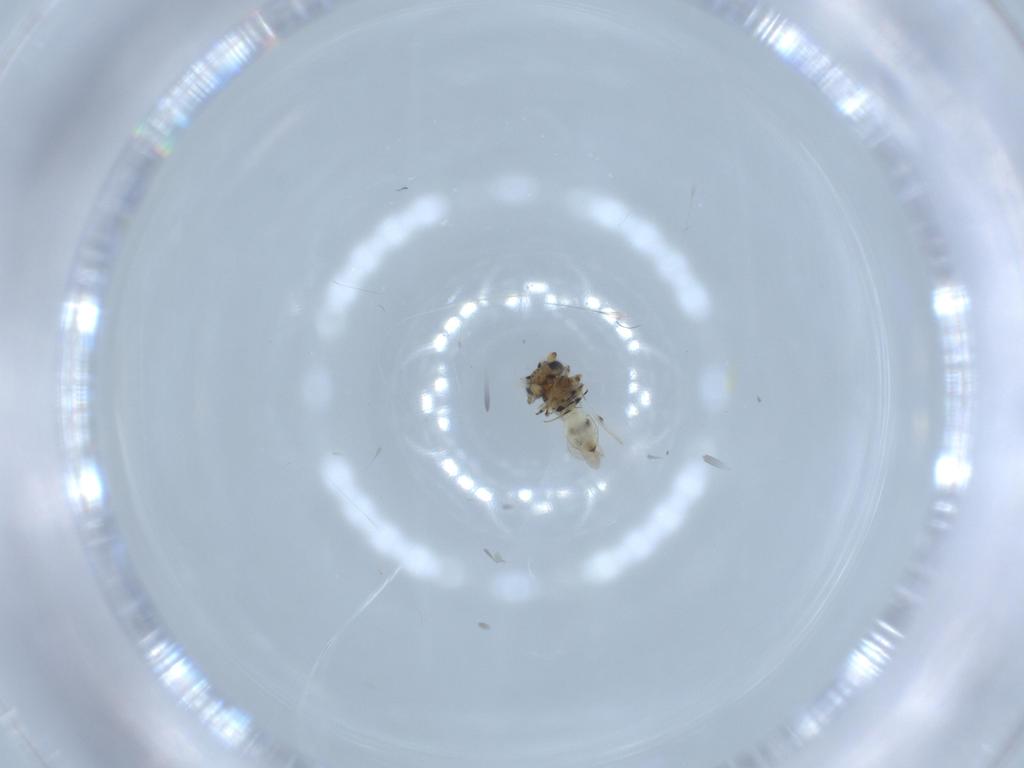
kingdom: Animalia
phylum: Arthropoda
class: Insecta
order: Hymenoptera
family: Scelionidae
